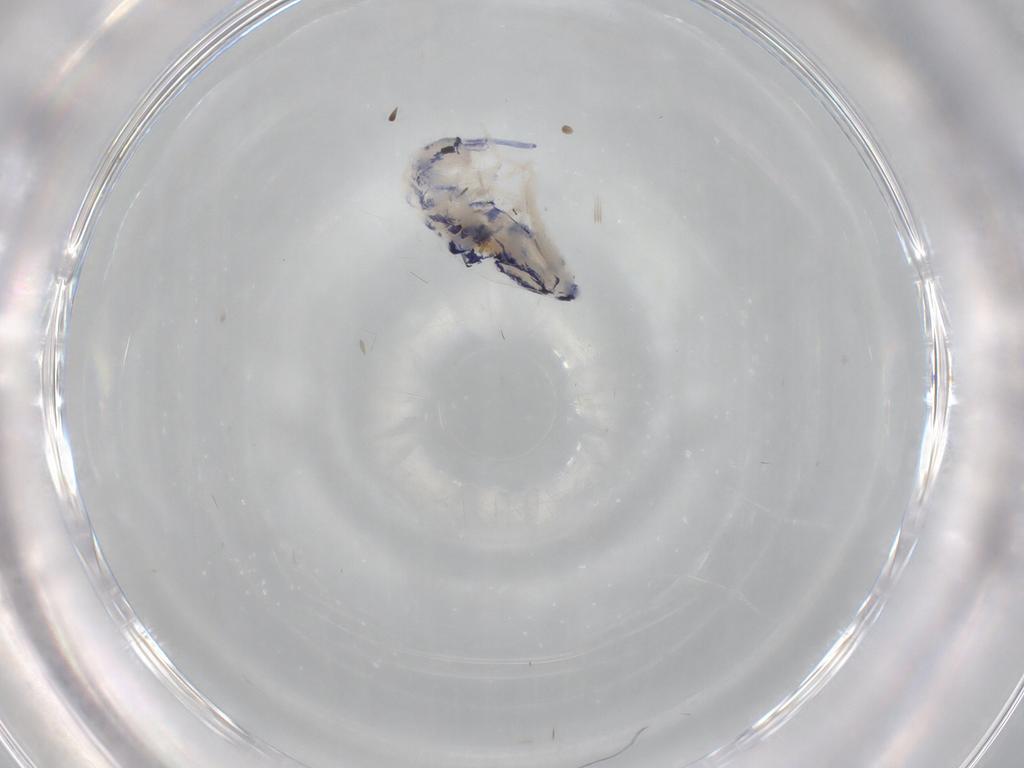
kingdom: Animalia
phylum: Arthropoda
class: Collembola
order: Entomobryomorpha
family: Entomobryidae
